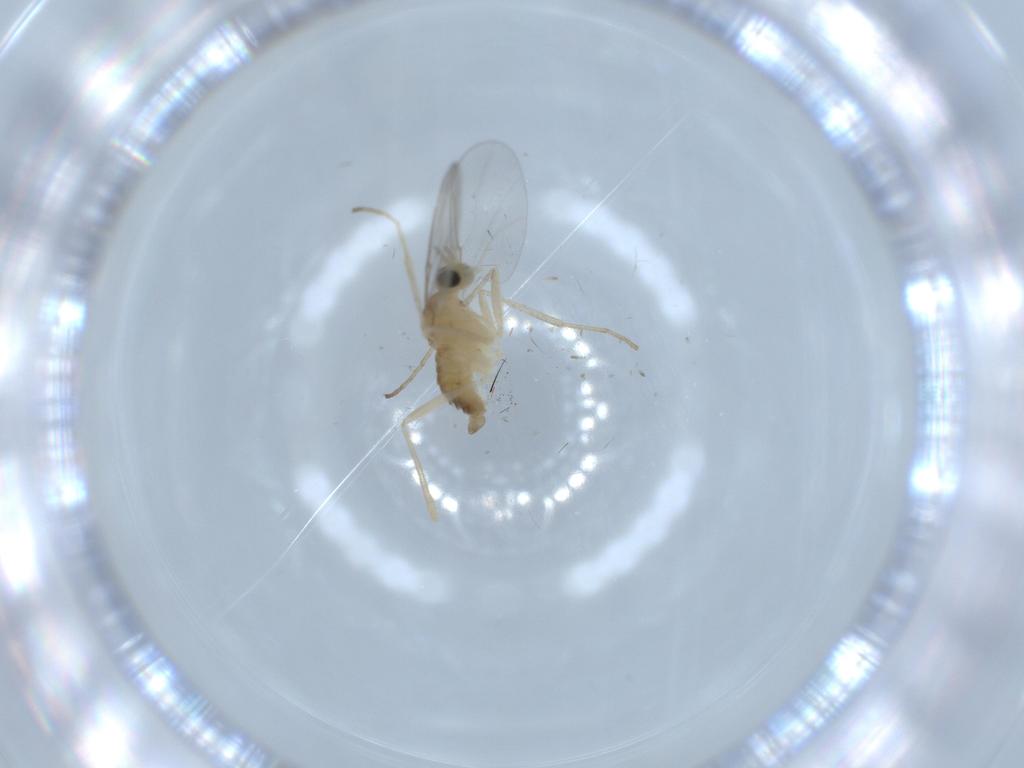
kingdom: Animalia
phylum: Arthropoda
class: Insecta
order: Diptera
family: Cecidomyiidae
